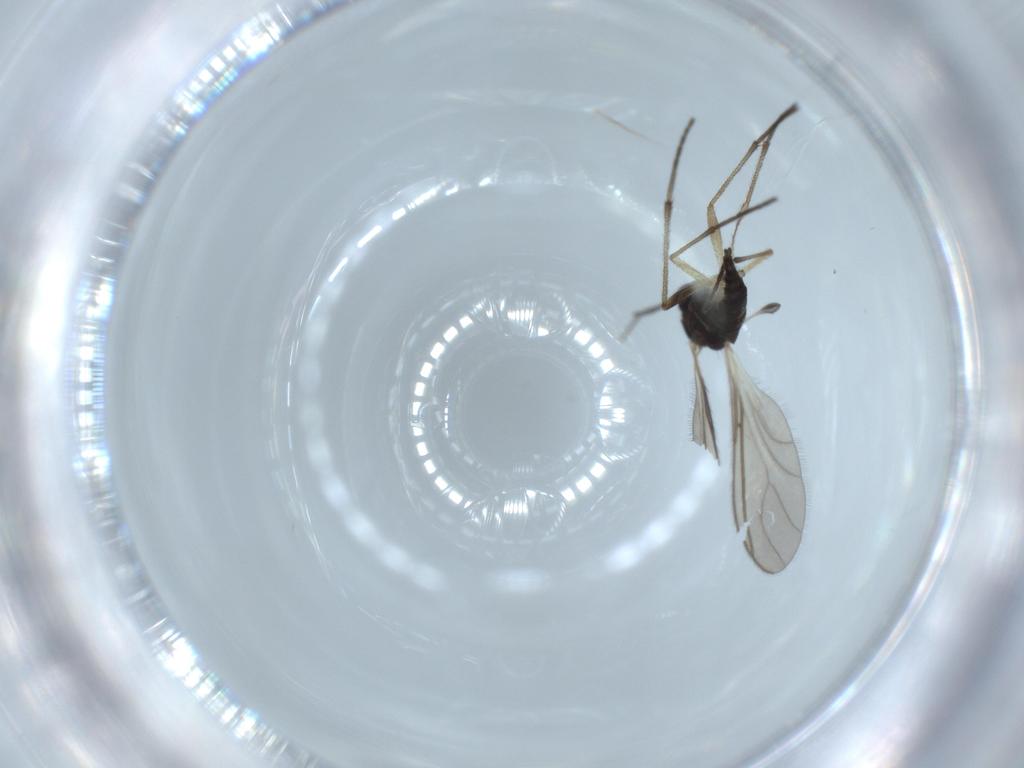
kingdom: Animalia
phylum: Arthropoda
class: Insecta
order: Diptera
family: Sciaridae
